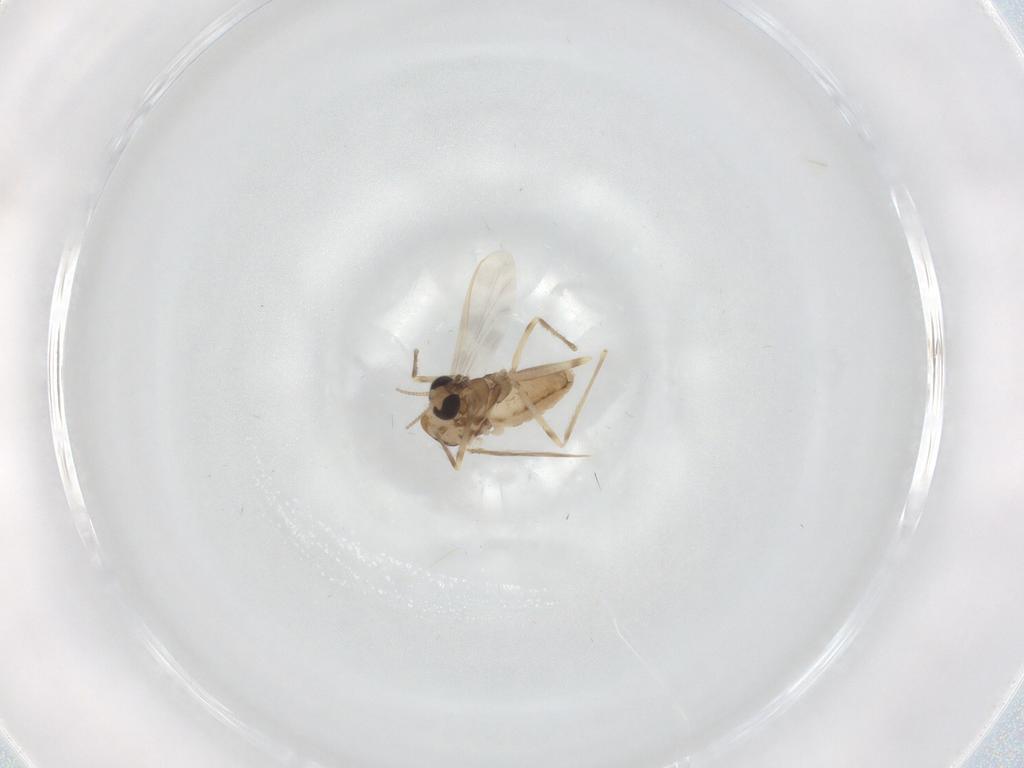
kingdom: Animalia
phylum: Arthropoda
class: Insecta
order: Diptera
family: Chironomidae
